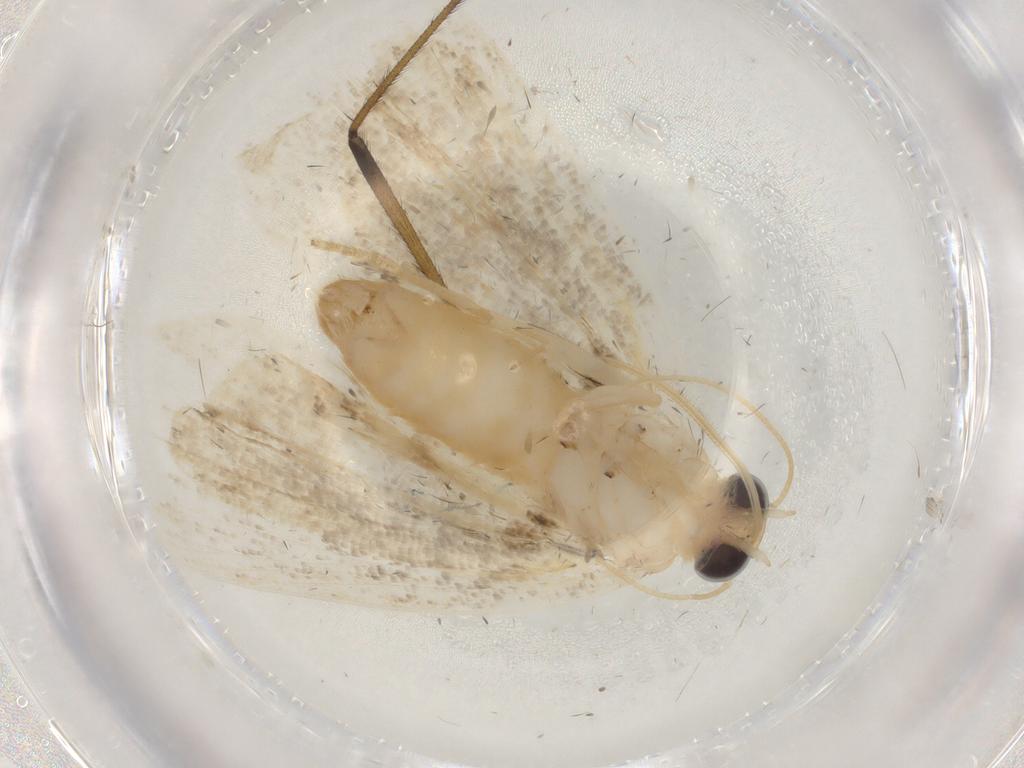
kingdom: Animalia
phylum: Arthropoda
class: Insecta
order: Lepidoptera
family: Erebidae
